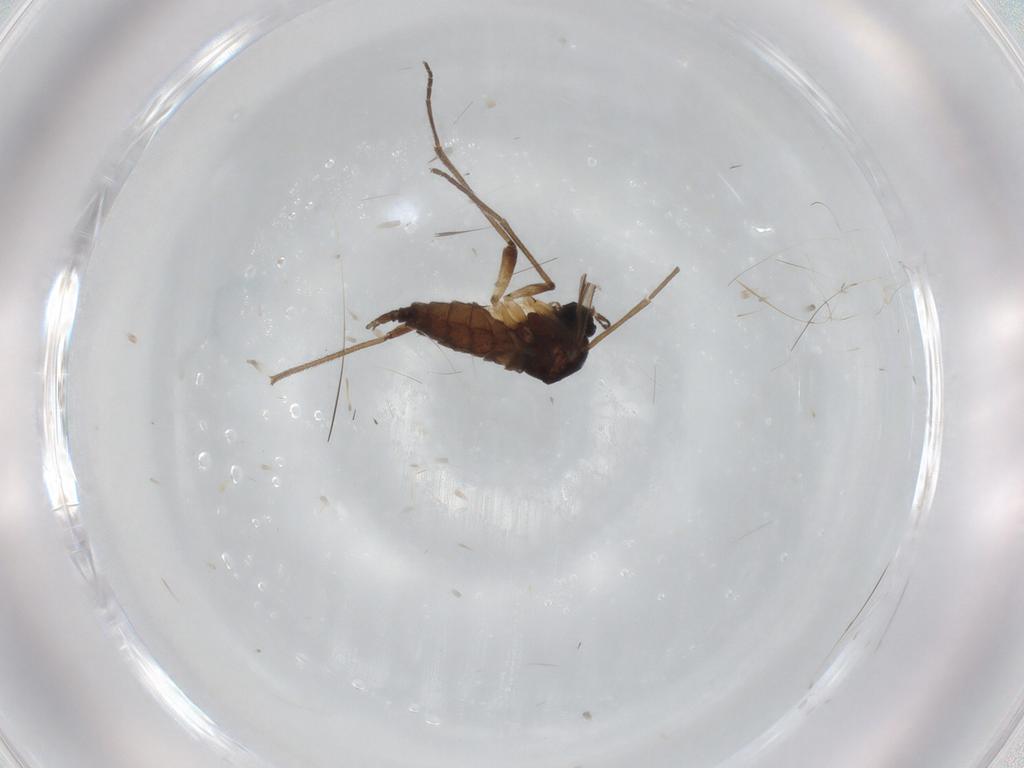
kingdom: Animalia
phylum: Arthropoda
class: Insecta
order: Diptera
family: Sciaridae
